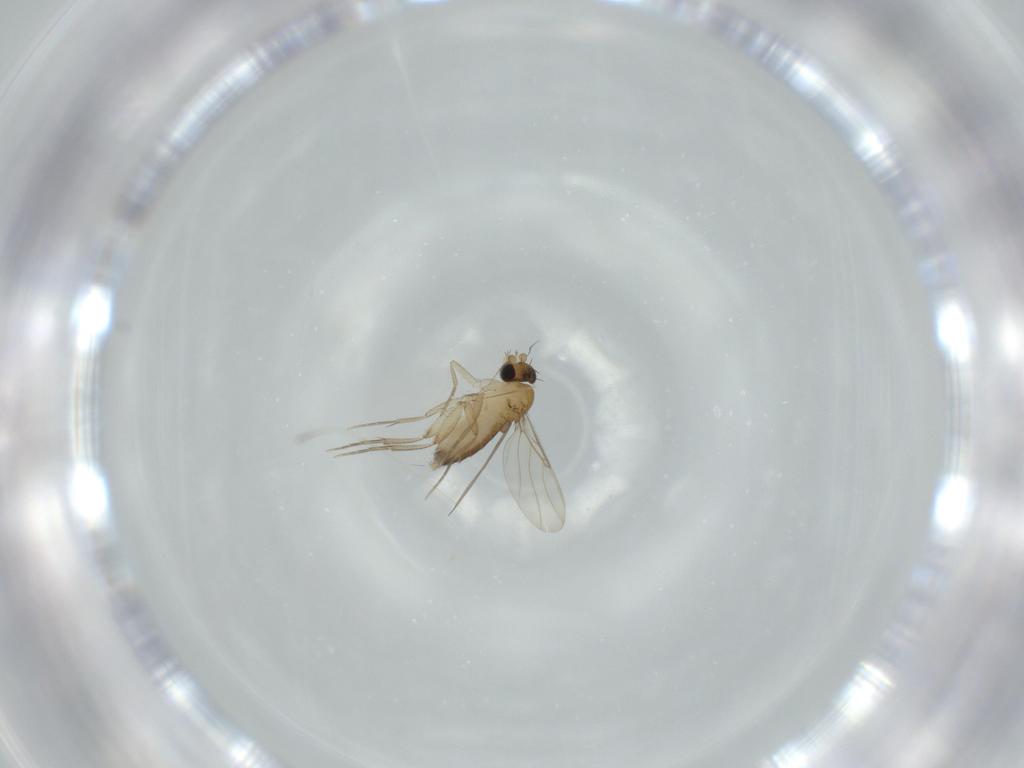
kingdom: Animalia
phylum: Arthropoda
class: Insecta
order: Diptera
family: Phoridae
